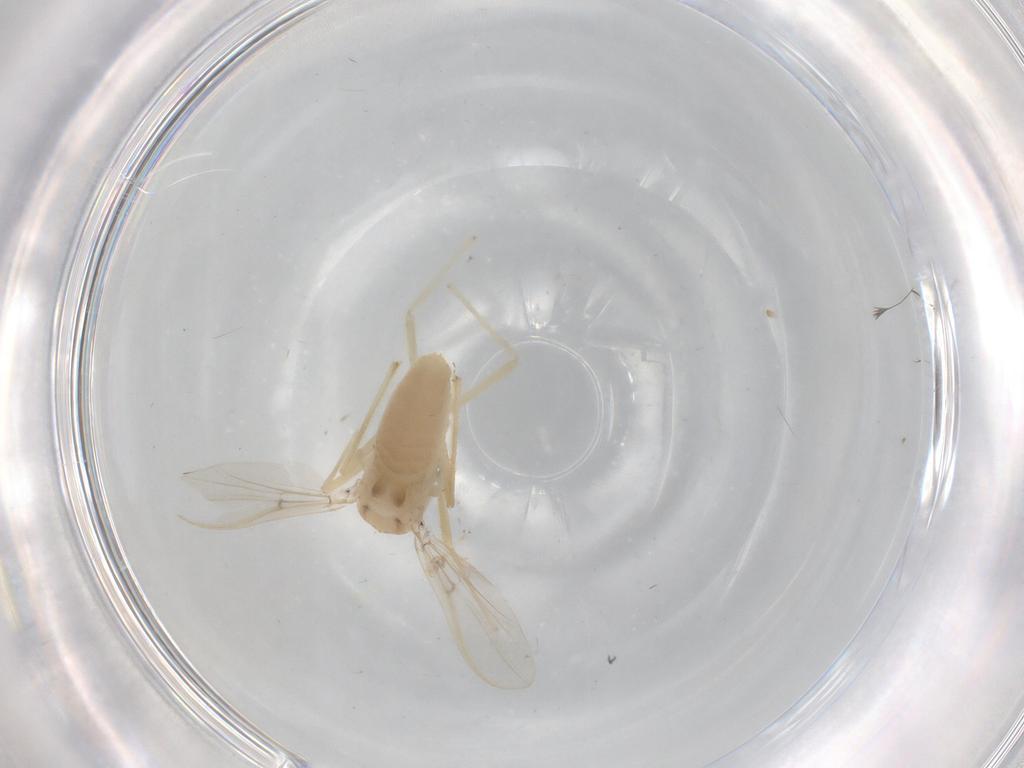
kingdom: Animalia
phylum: Arthropoda
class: Insecta
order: Diptera
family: Chironomidae
